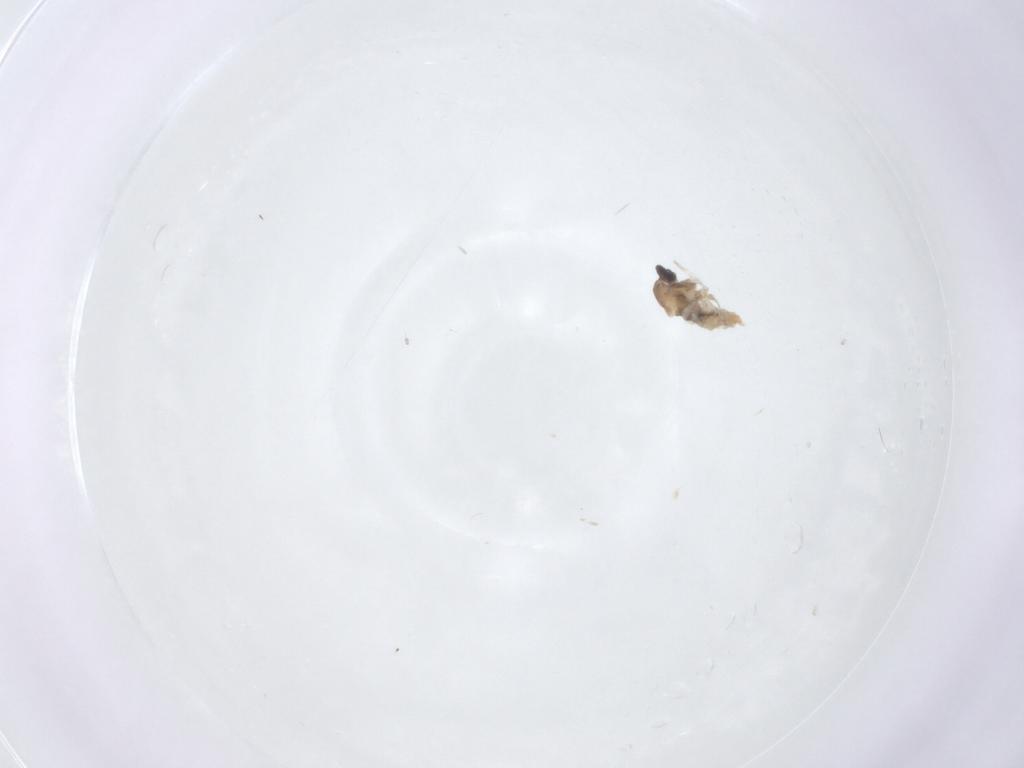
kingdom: Animalia
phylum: Arthropoda
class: Insecta
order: Diptera
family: Cecidomyiidae
